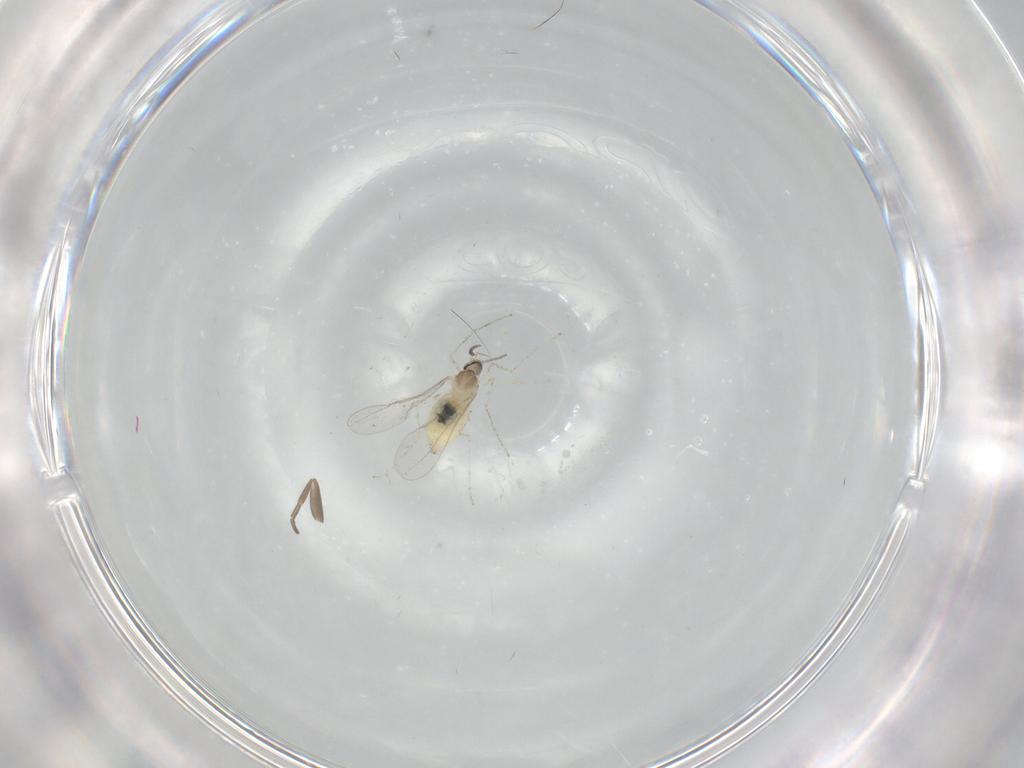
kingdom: Animalia
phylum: Arthropoda
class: Insecta
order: Diptera
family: Cecidomyiidae
